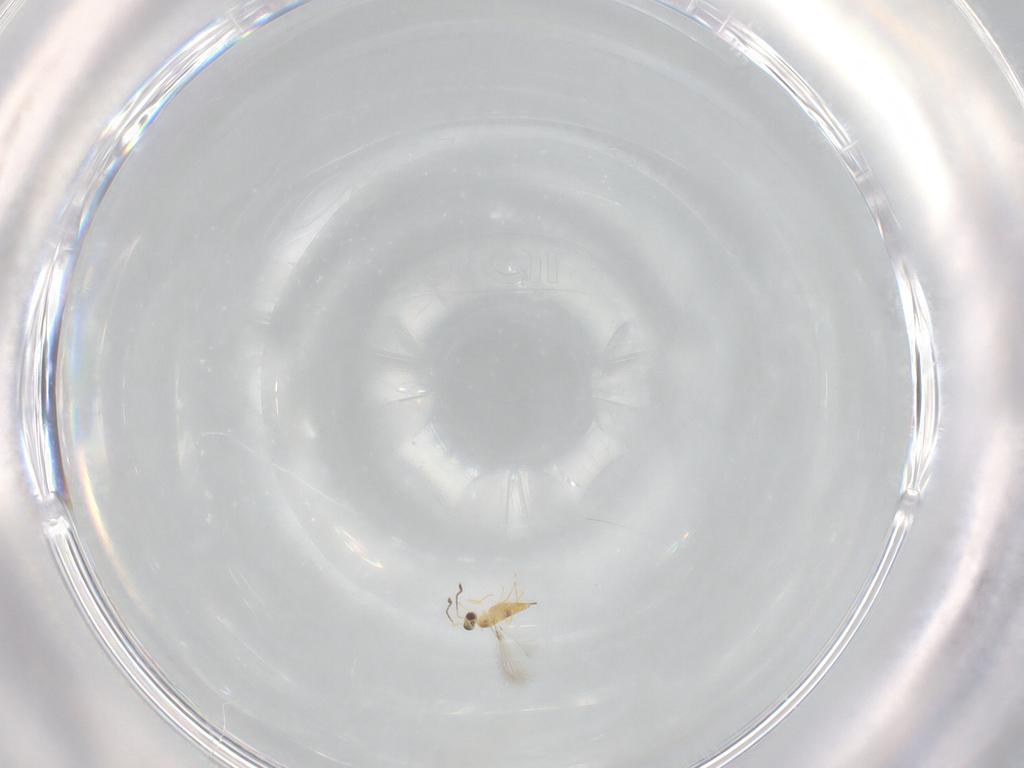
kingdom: Animalia
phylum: Arthropoda
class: Insecta
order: Hymenoptera
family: Mymaridae
